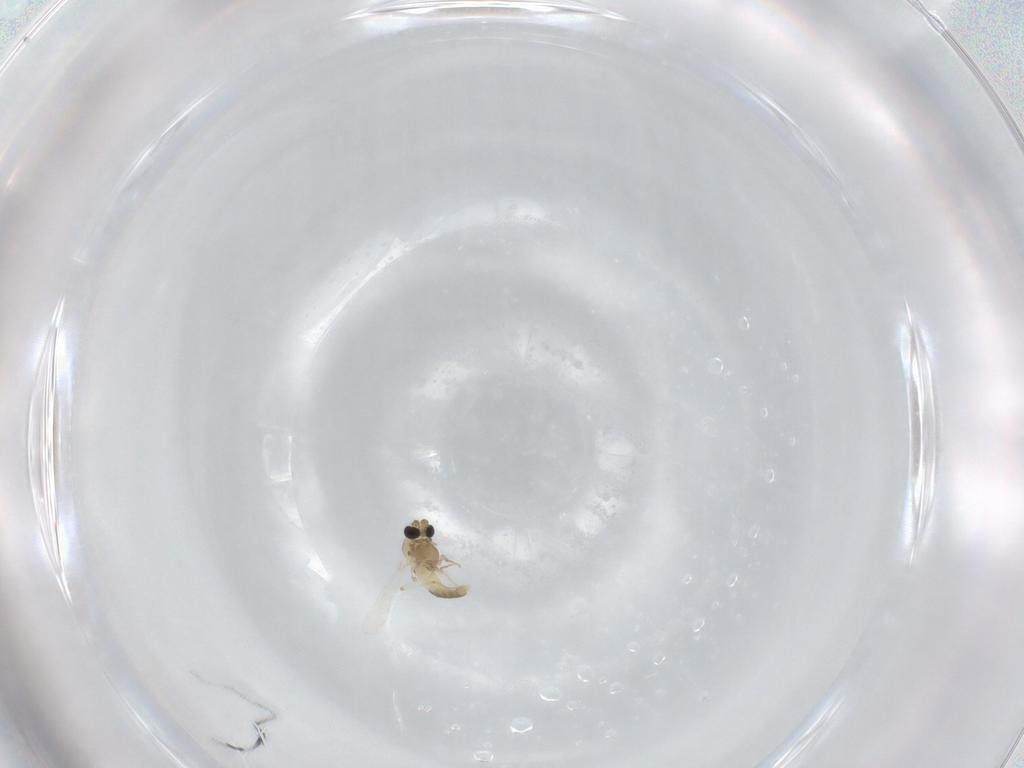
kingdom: Animalia
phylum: Arthropoda
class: Insecta
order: Diptera
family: Chironomidae
